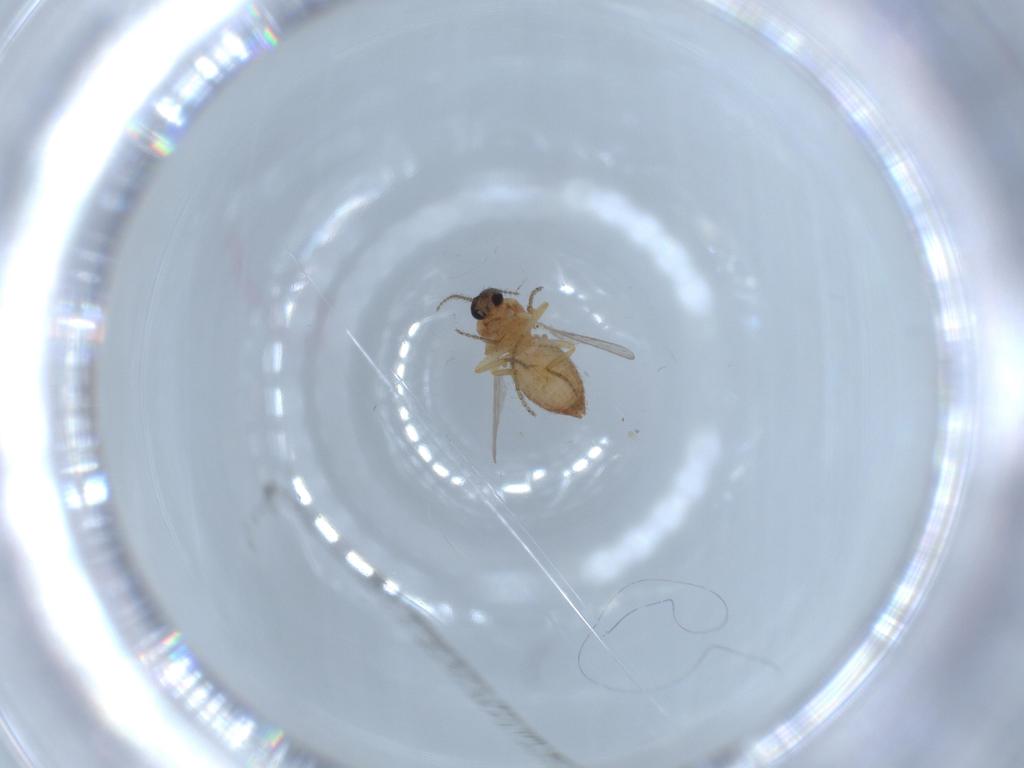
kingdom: Animalia
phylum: Arthropoda
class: Insecta
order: Diptera
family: Ceratopogonidae
